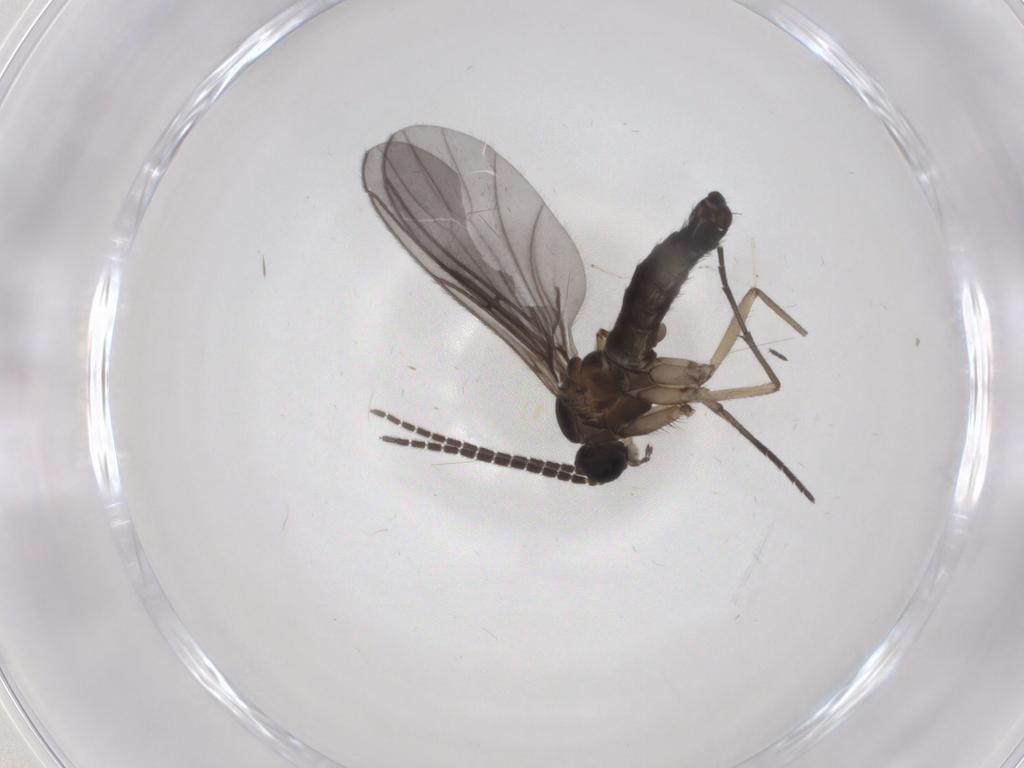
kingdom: Animalia
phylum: Arthropoda
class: Insecta
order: Diptera
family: Sciaridae
